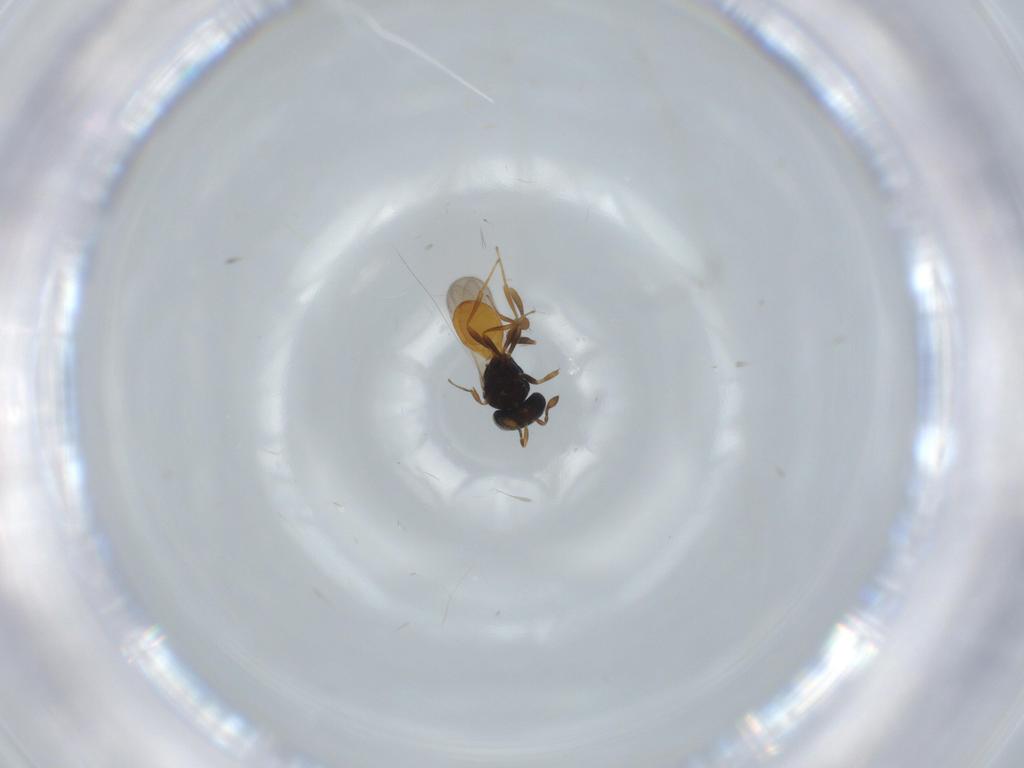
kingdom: Animalia
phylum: Arthropoda
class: Insecta
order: Hymenoptera
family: Scelionidae
